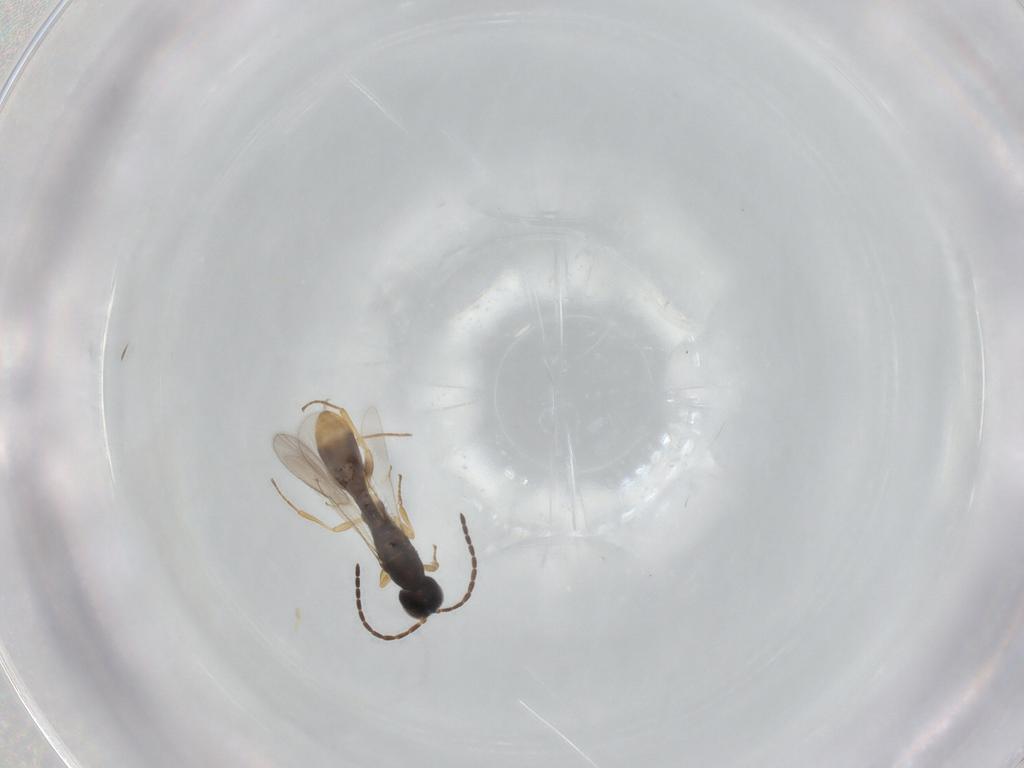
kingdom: Animalia
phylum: Arthropoda
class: Insecta
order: Hymenoptera
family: Scelionidae
